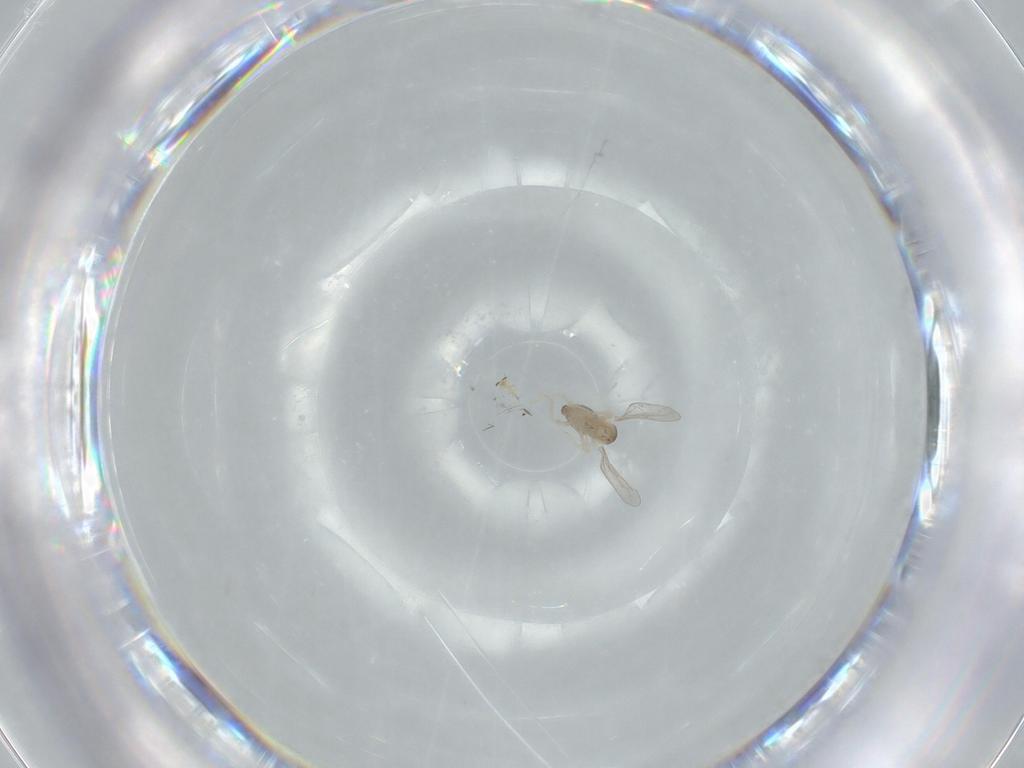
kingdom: Animalia
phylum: Arthropoda
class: Insecta
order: Diptera
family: Cecidomyiidae
